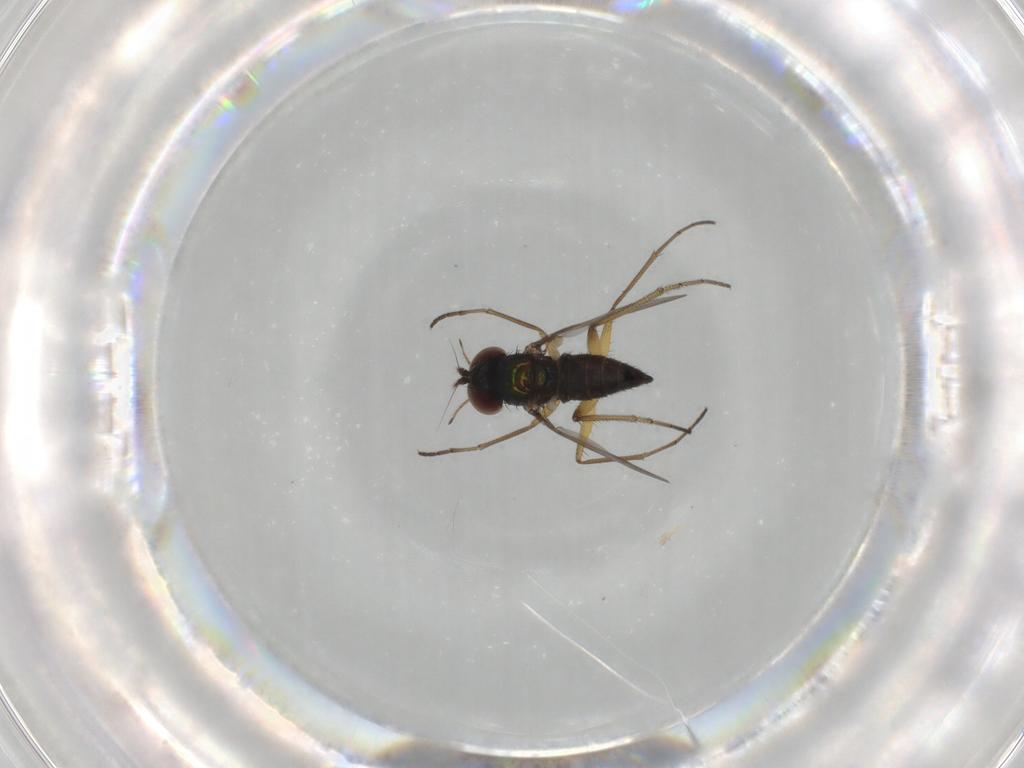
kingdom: Animalia
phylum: Arthropoda
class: Insecta
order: Diptera
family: Dolichopodidae
